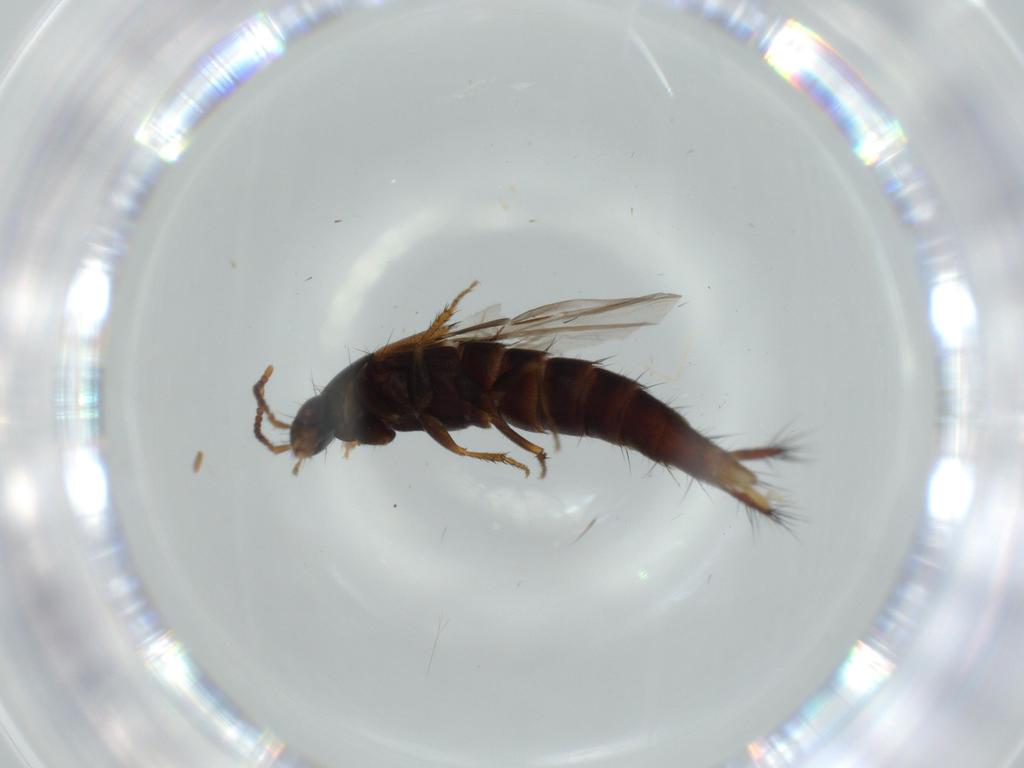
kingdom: Animalia
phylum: Arthropoda
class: Insecta
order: Coleoptera
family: Staphylinidae
